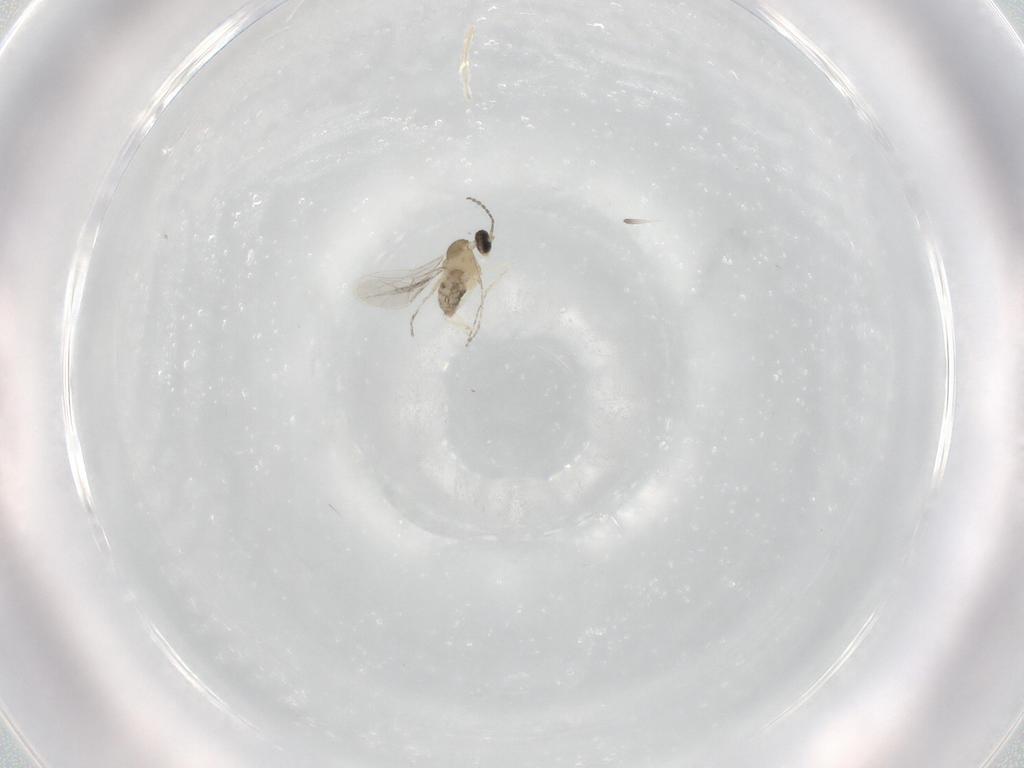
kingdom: Animalia
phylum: Arthropoda
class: Insecta
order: Diptera
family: Cecidomyiidae
